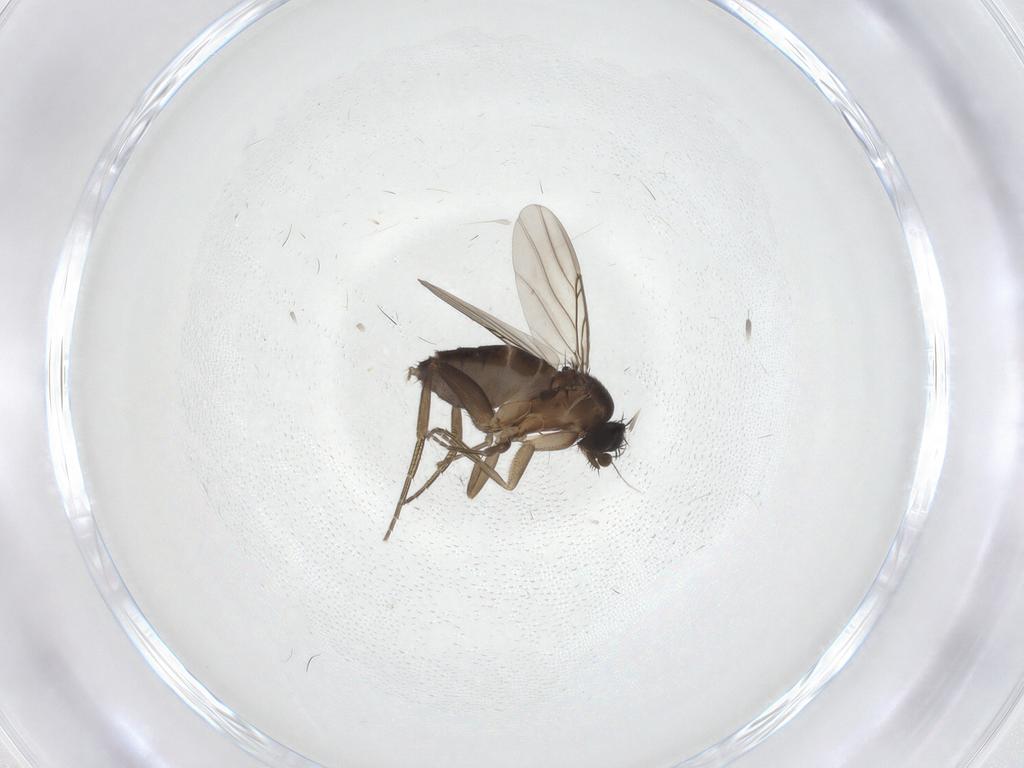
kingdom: Animalia
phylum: Arthropoda
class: Insecta
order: Diptera
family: Phoridae
